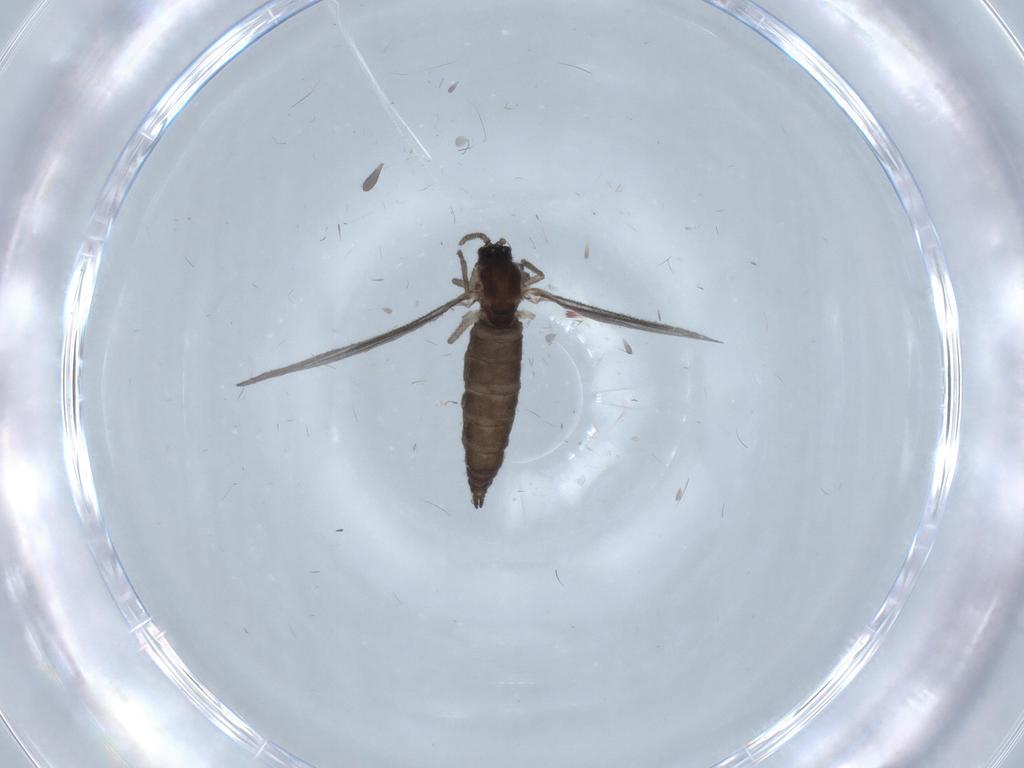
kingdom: Animalia
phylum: Arthropoda
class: Insecta
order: Diptera
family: Sciaridae
